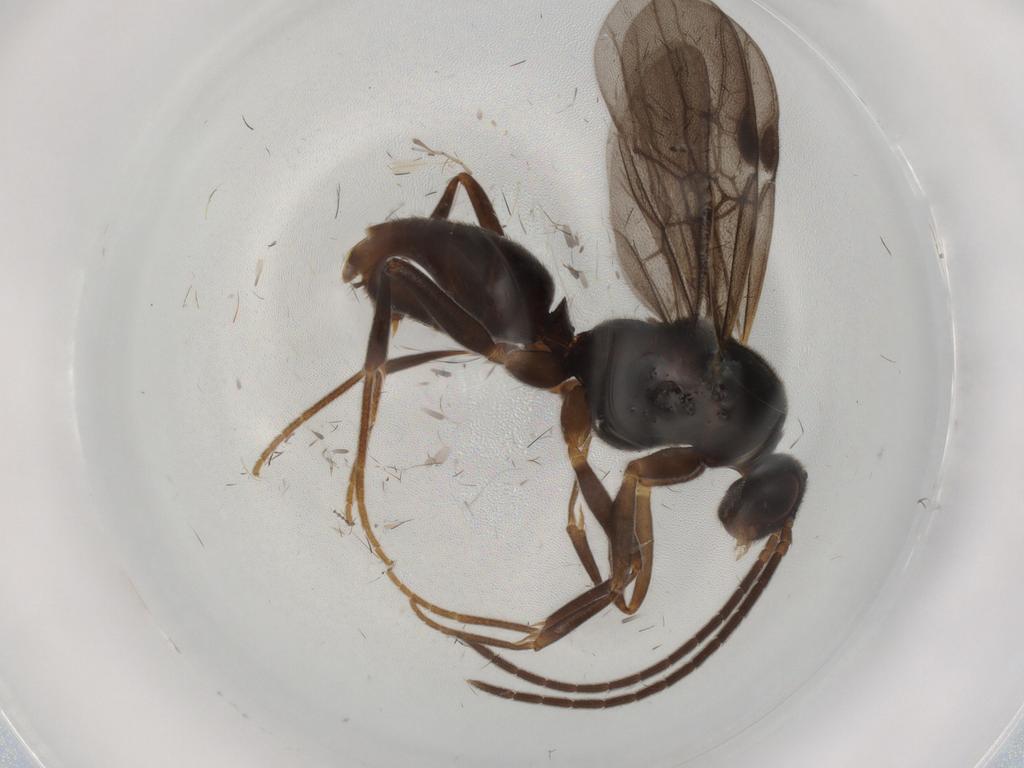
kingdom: Animalia
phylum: Arthropoda
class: Insecta
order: Hymenoptera
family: Formicidae
